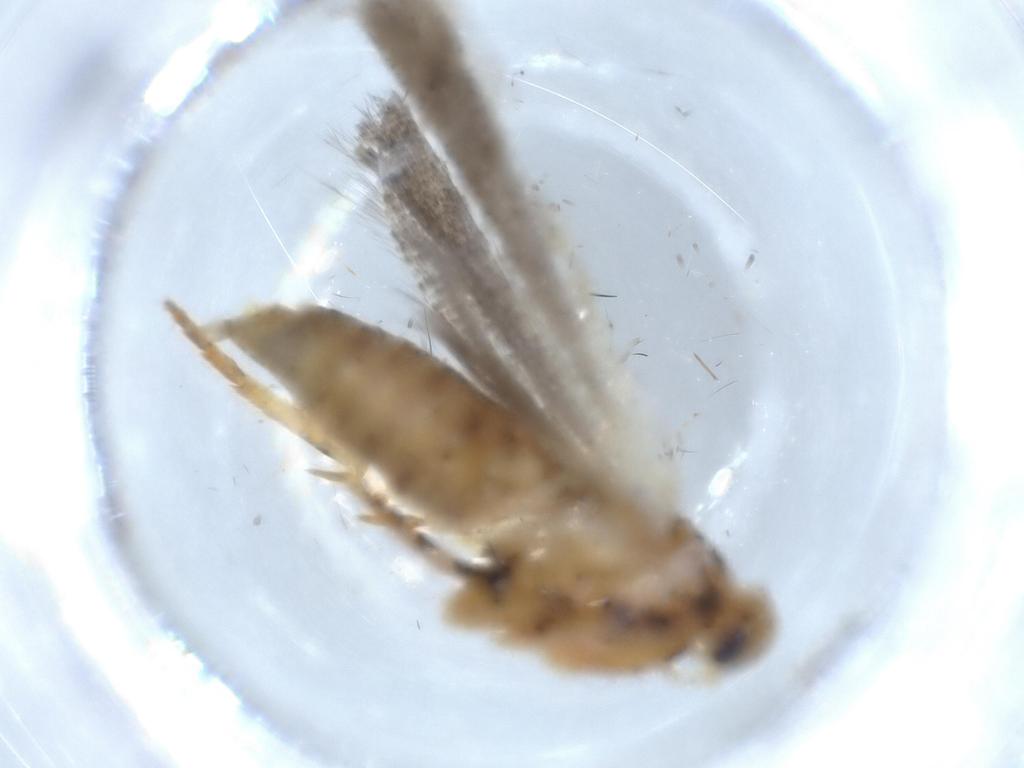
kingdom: Animalia
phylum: Arthropoda
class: Insecta
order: Lepidoptera
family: Gelechiidae
